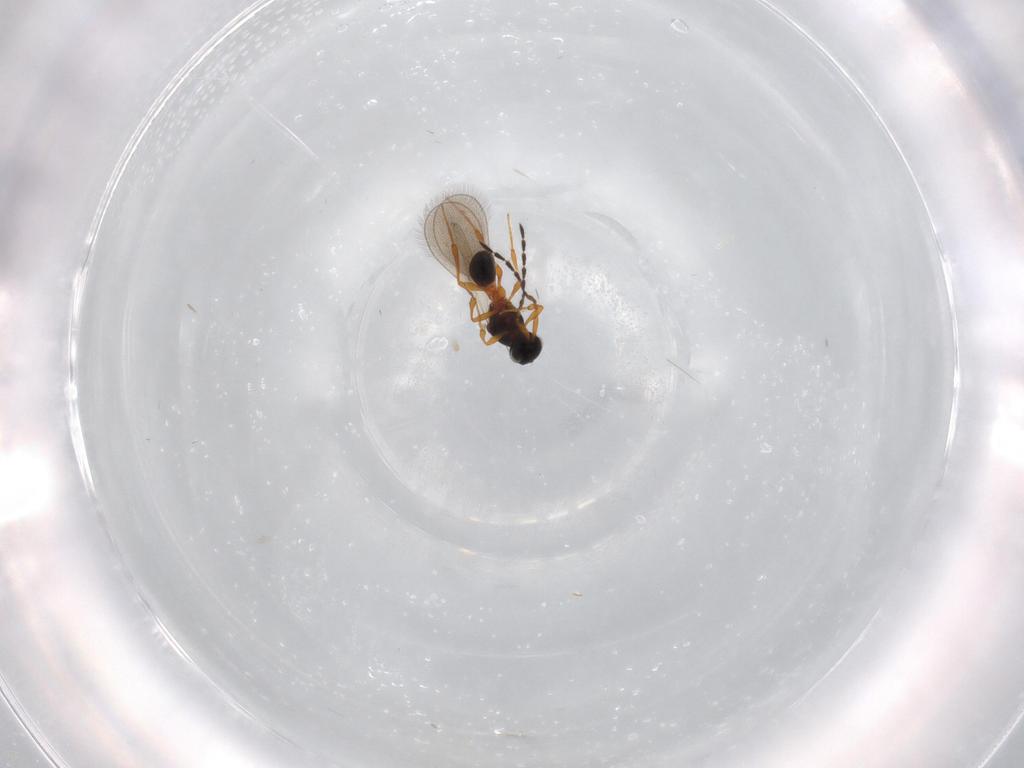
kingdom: Animalia
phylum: Arthropoda
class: Insecta
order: Hymenoptera
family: Platygastridae
